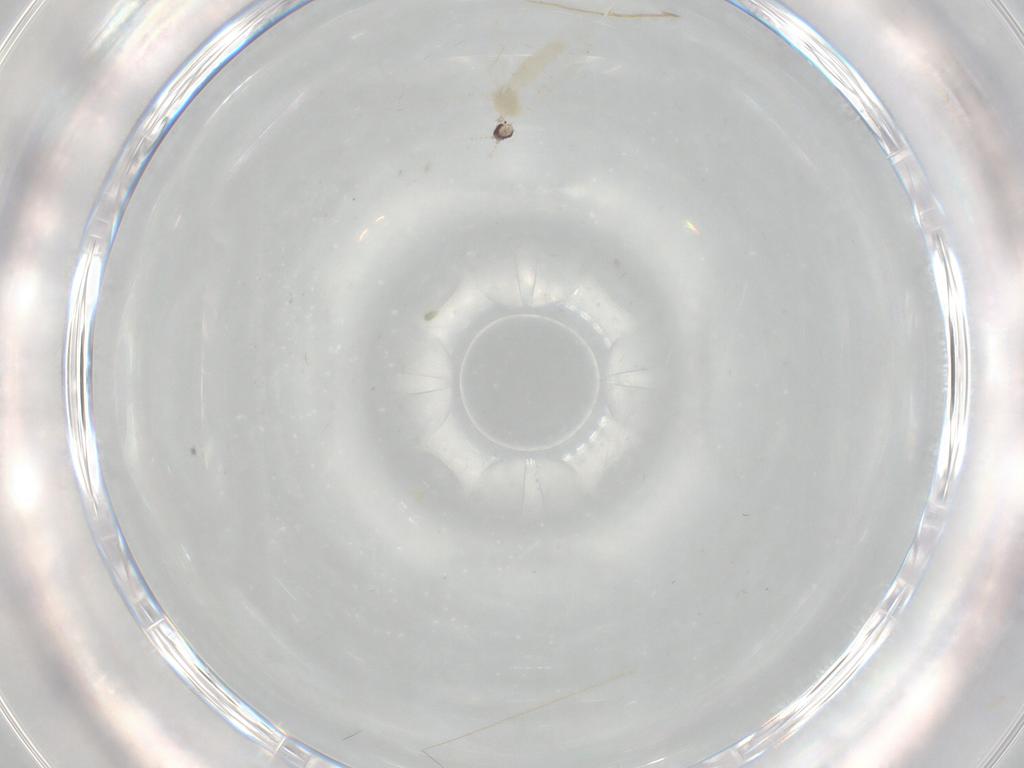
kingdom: Animalia
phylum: Arthropoda
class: Insecta
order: Diptera
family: Cecidomyiidae
